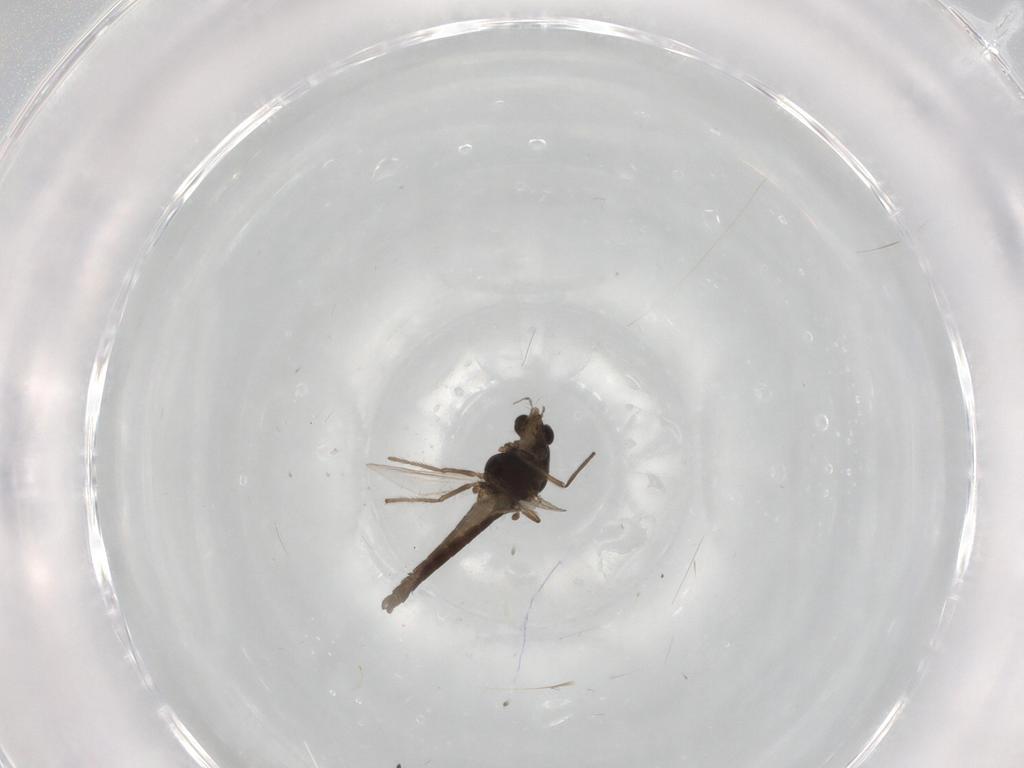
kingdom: Animalia
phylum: Arthropoda
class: Insecta
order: Diptera
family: Chironomidae
